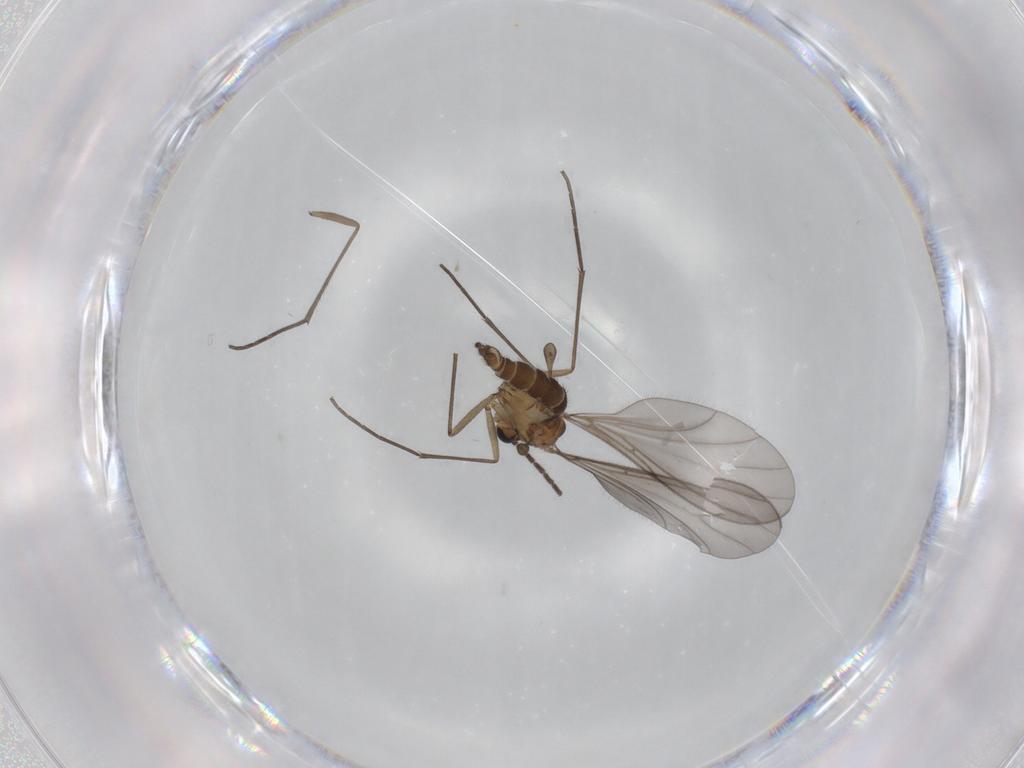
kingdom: Animalia
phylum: Arthropoda
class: Insecta
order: Diptera
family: Sciaridae
